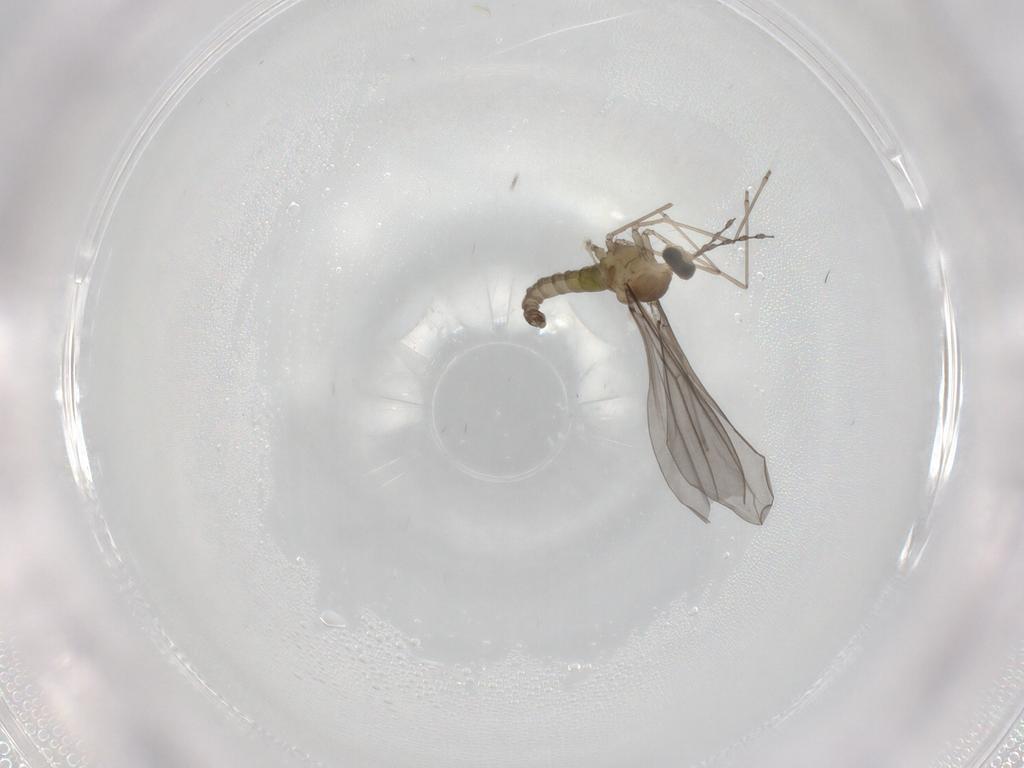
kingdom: Animalia
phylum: Arthropoda
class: Insecta
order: Diptera
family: Cecidomyiidae
